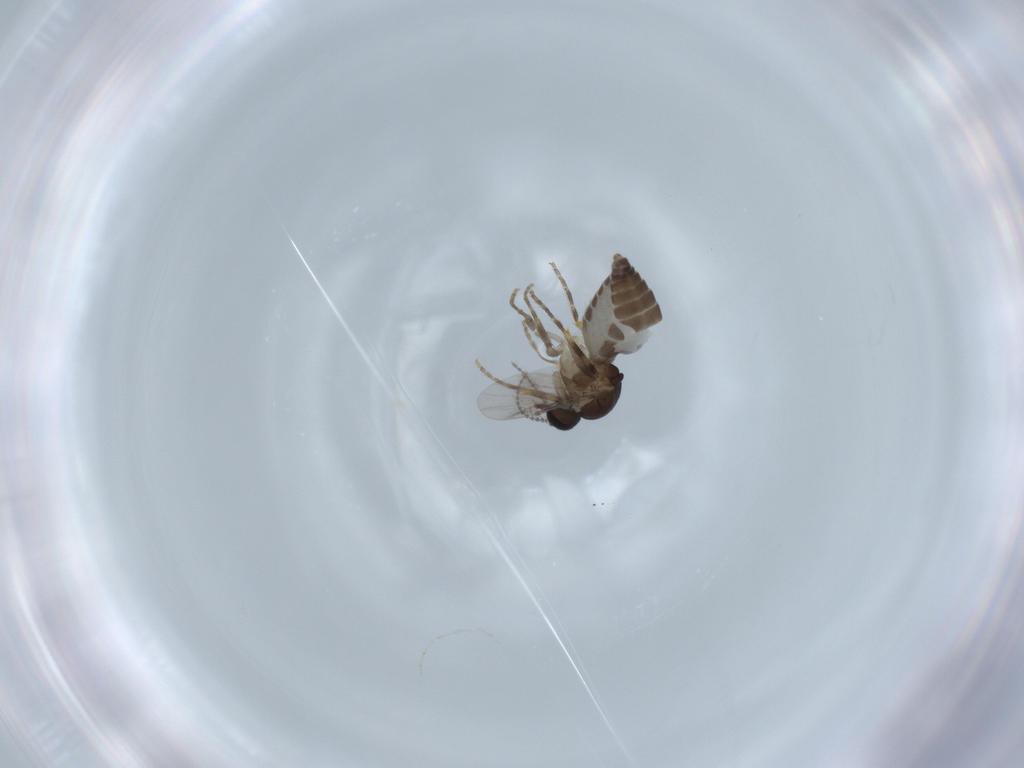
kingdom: Animalia
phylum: Arthropoda
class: Insecta
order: Diptera
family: Ceratopogonidae
